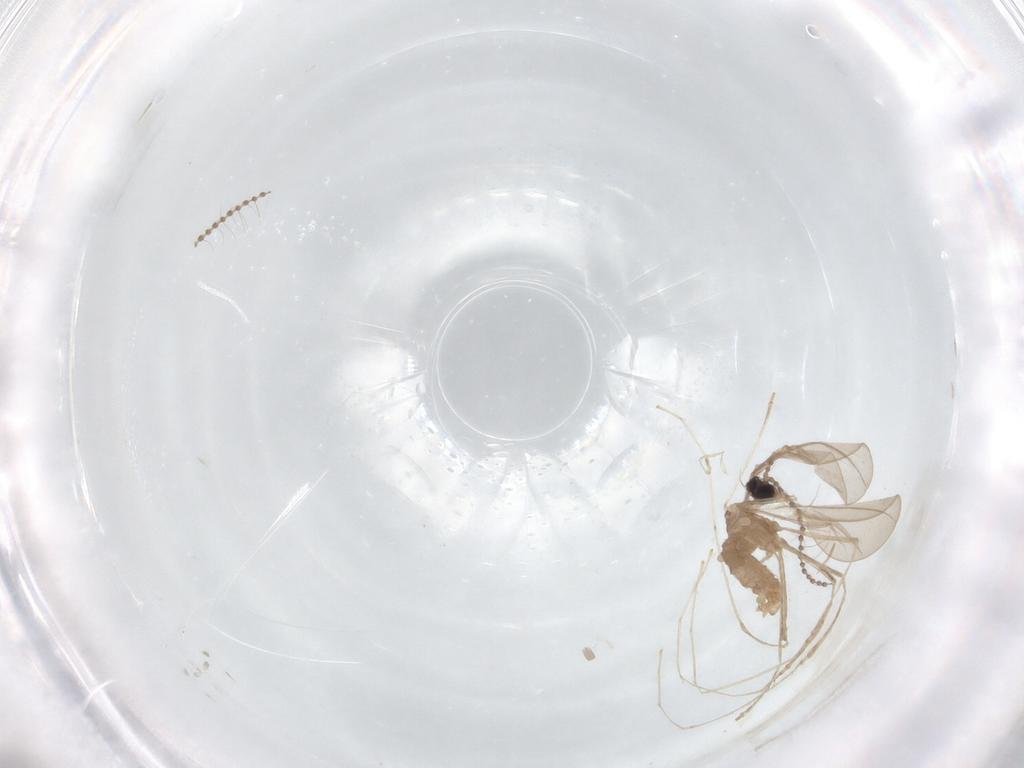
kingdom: Animalia
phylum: Arthropoda
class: Insecta
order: Diptera
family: Cecidomyiidae
